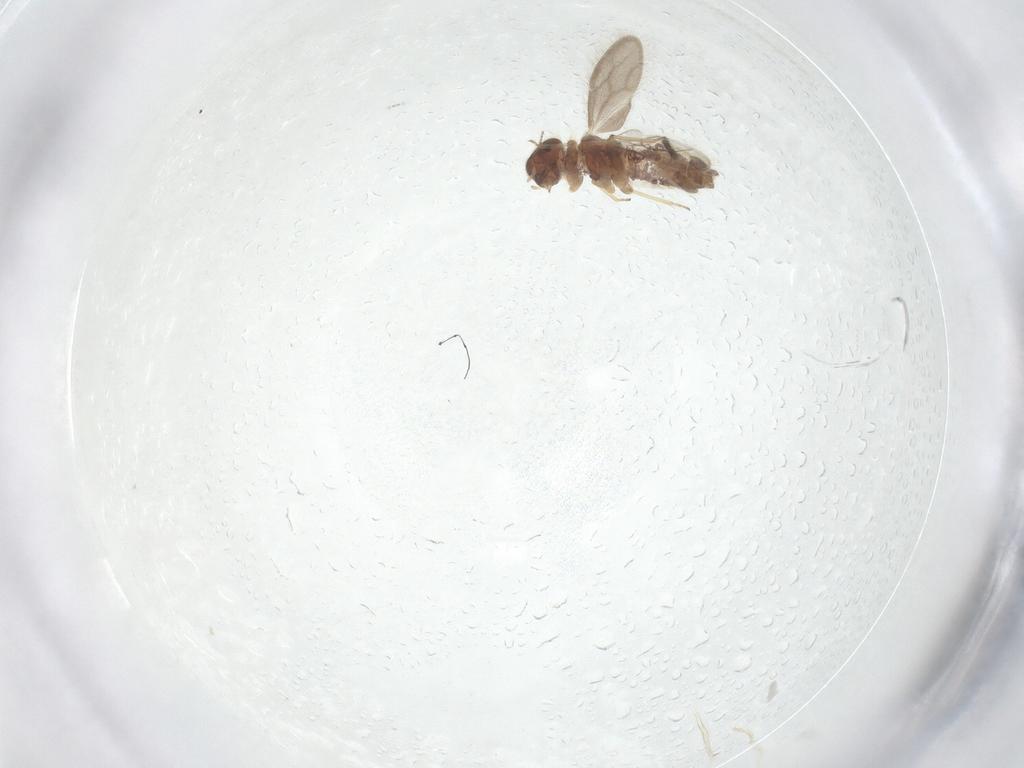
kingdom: Animalia
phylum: Arthropoda
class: Insecta
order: Psocodea
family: Archipsocidae
